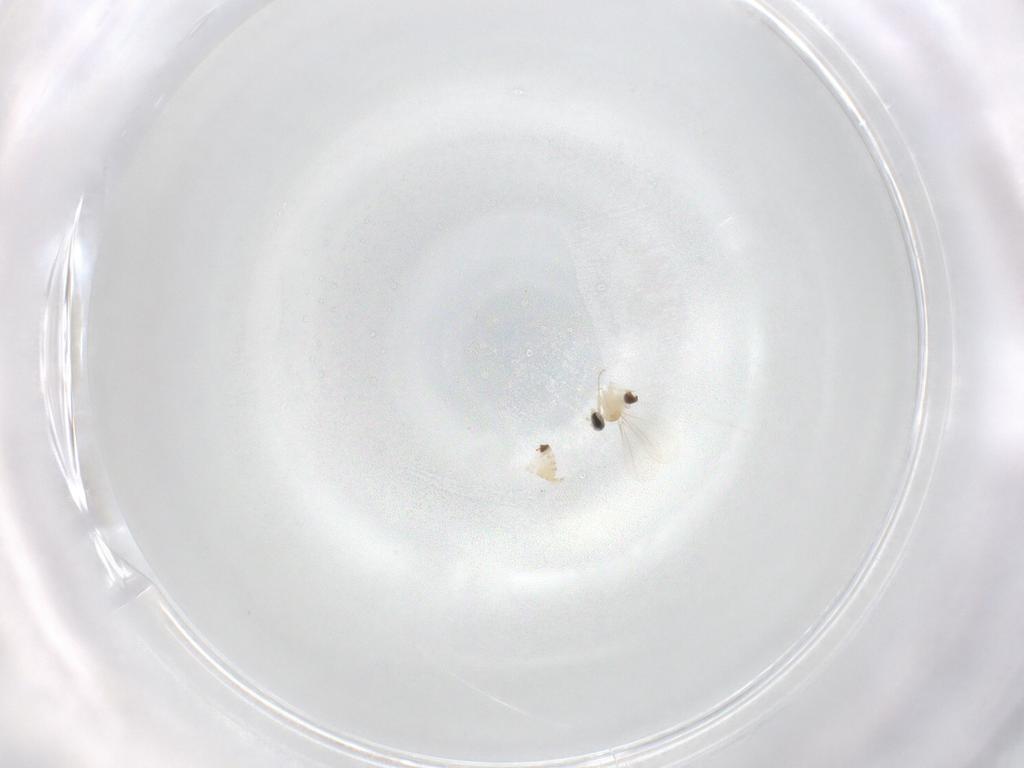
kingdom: Animalia
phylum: Arthropoda
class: Insecta
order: Diptera
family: Cecidomyiidae
